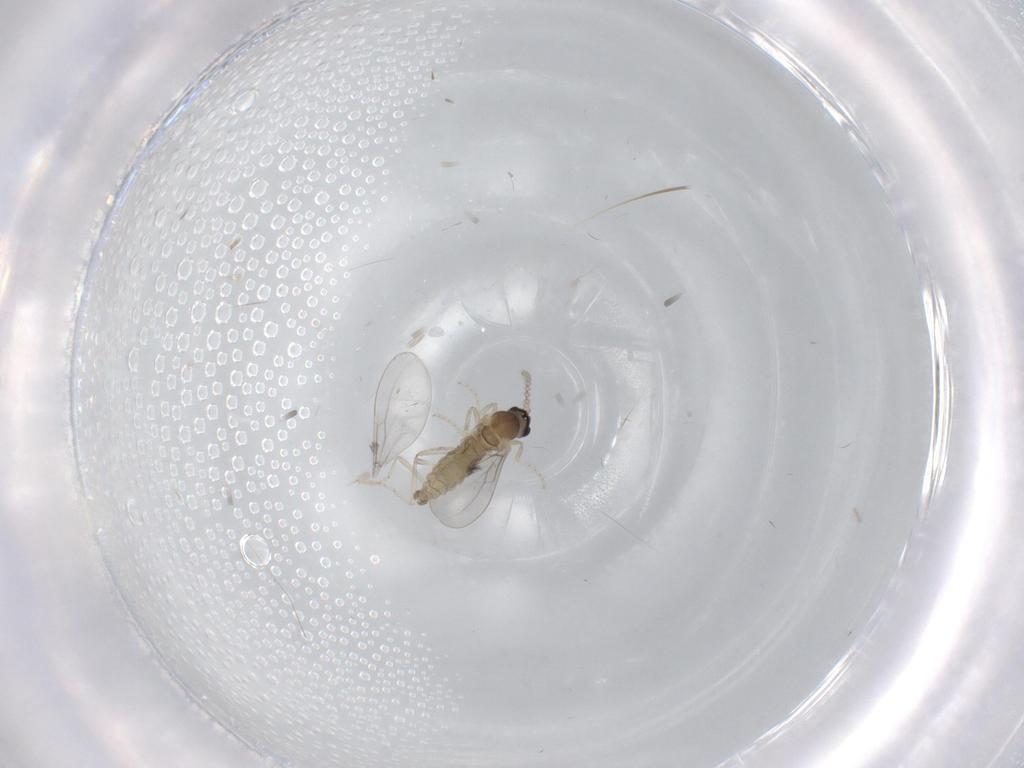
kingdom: Animalia
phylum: Arthropoda
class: Insecta
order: Diptera
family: Cecidomyiidae
